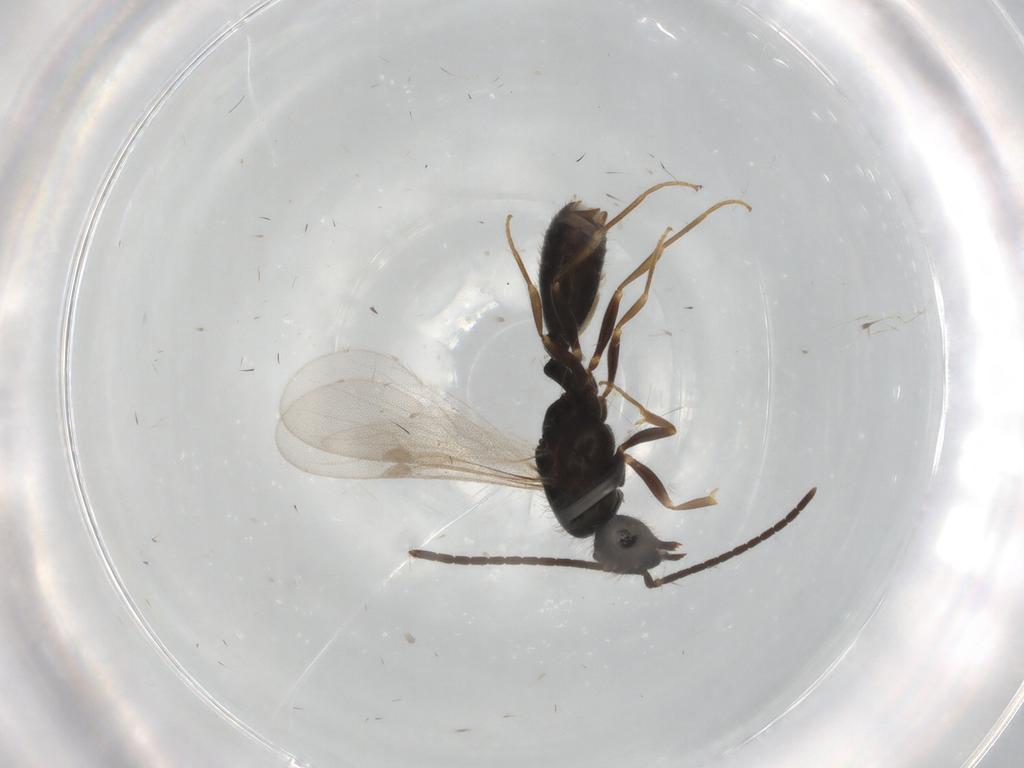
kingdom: Animalia
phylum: Arthropoda
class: Insecta
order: Hymenoptera
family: Formicidae
